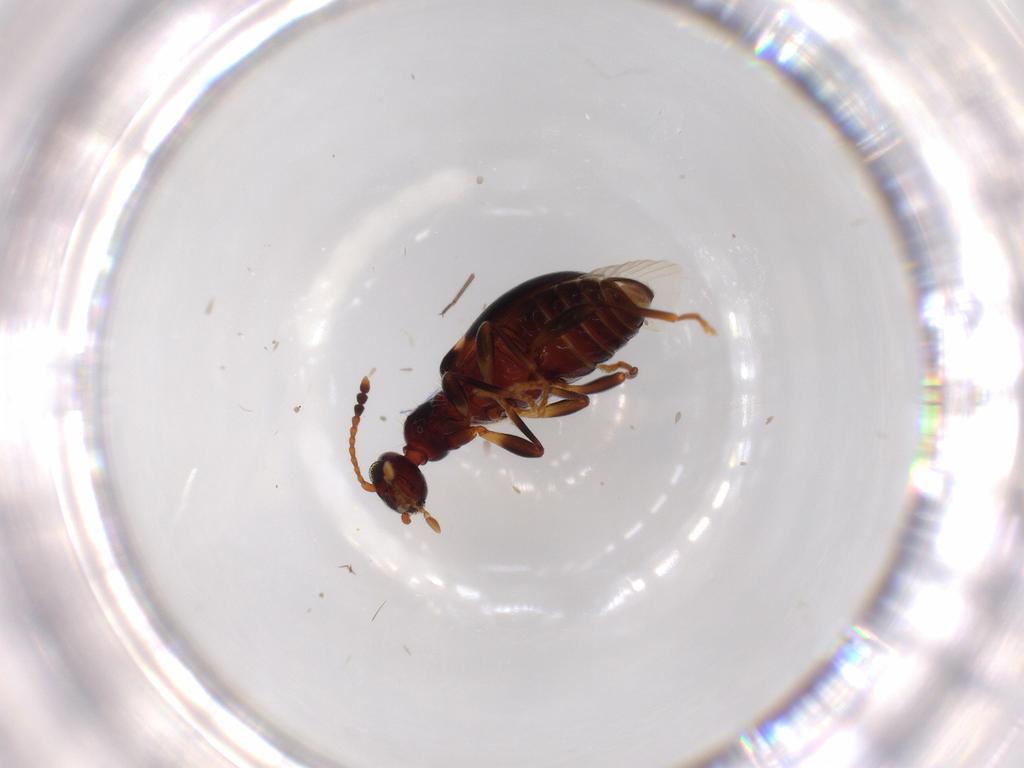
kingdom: Animalia
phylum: Arthropoda
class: Insecta
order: Coleoptera
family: Anthicidae
